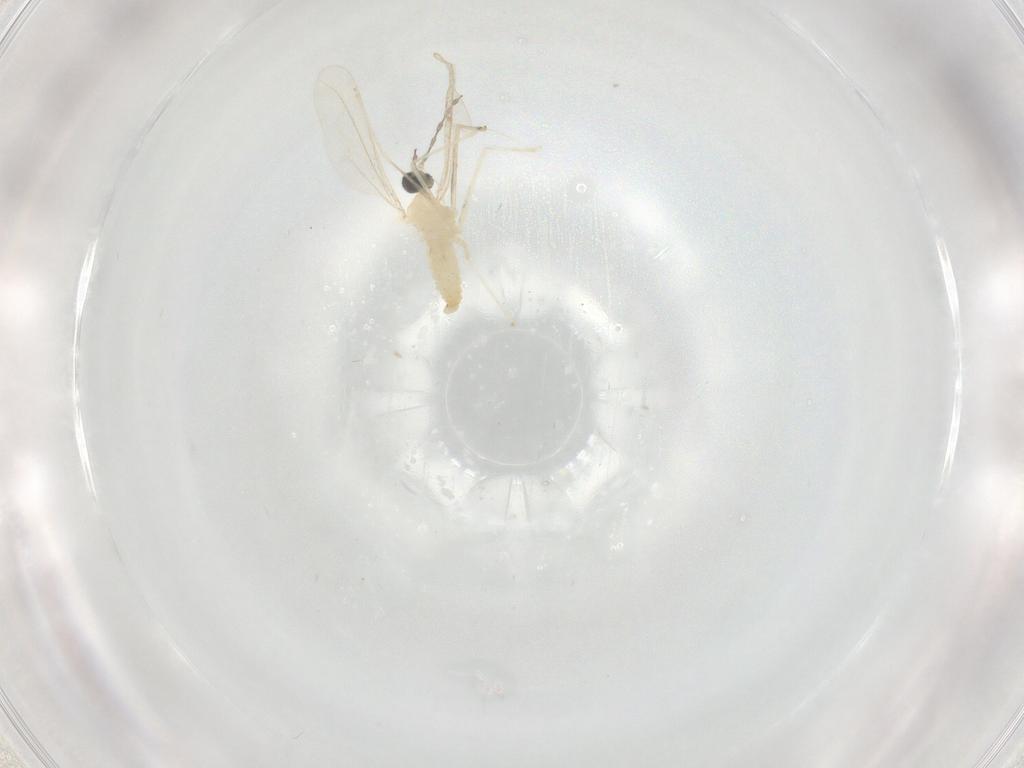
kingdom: Animalia
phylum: Arthropoda
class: Insecta
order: Diptera
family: Cecidomyiidae
